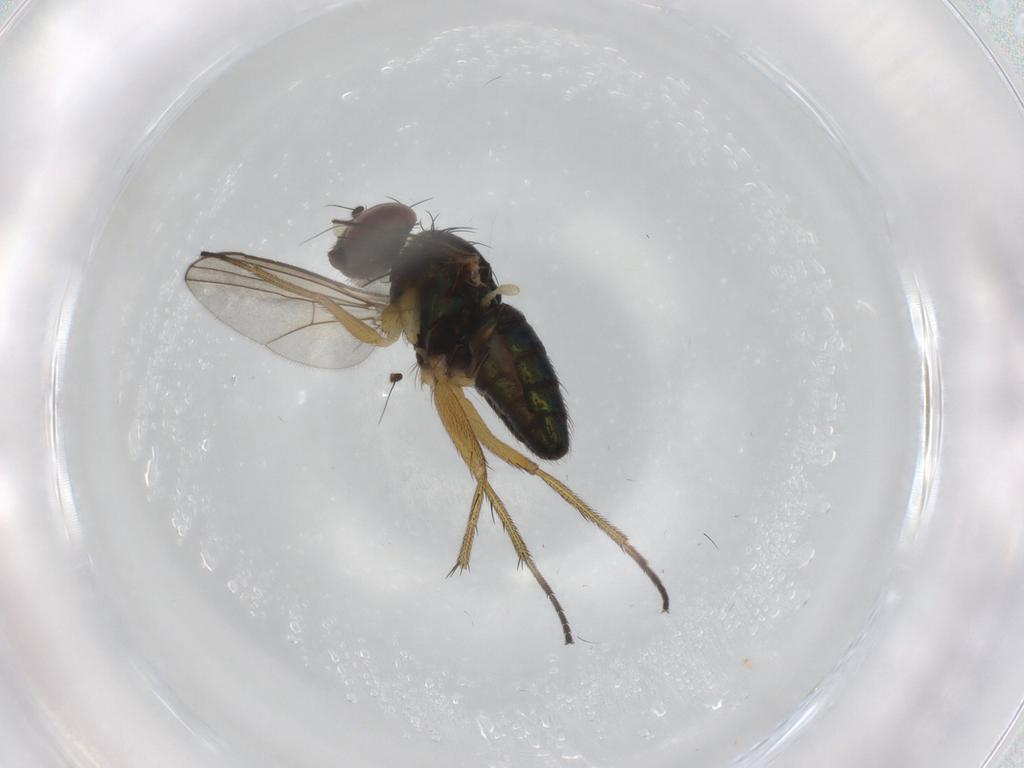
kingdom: Animalia
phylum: Arthropoda
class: Insecta
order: Diptera
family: Dolichopodidae
